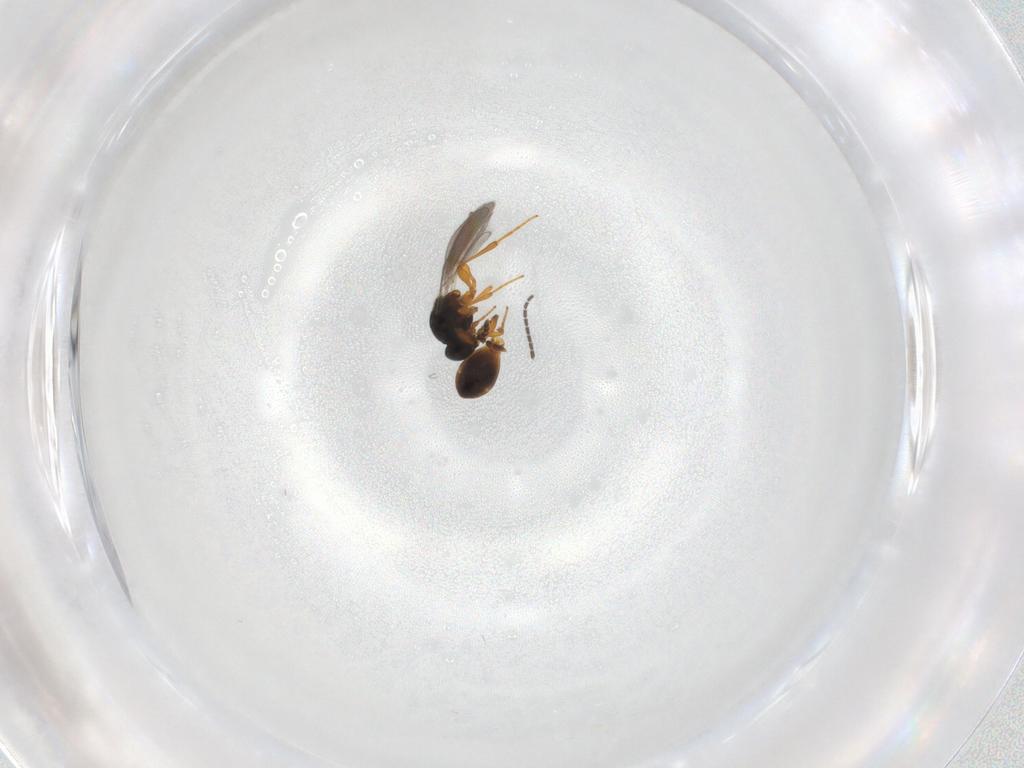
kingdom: Animalia
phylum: Arthropoda
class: Insecta
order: Hymenoptera
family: Platygastridae
